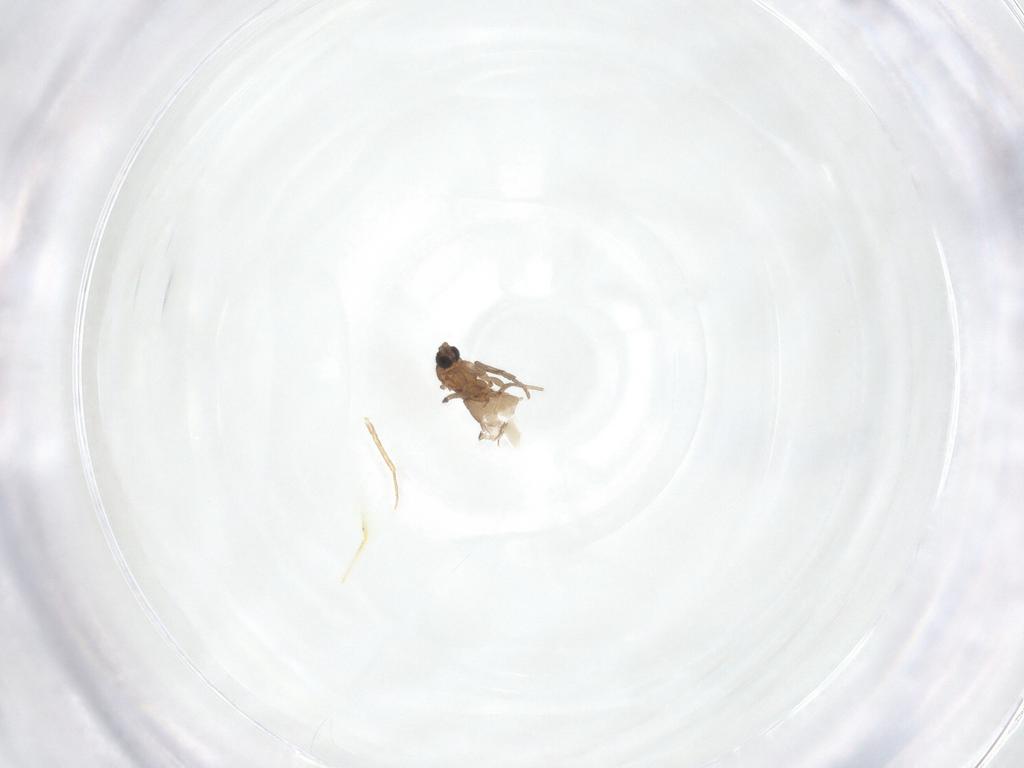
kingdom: Animalia
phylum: Arthropoda
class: Insecta
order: Diptera
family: Sciaridae
